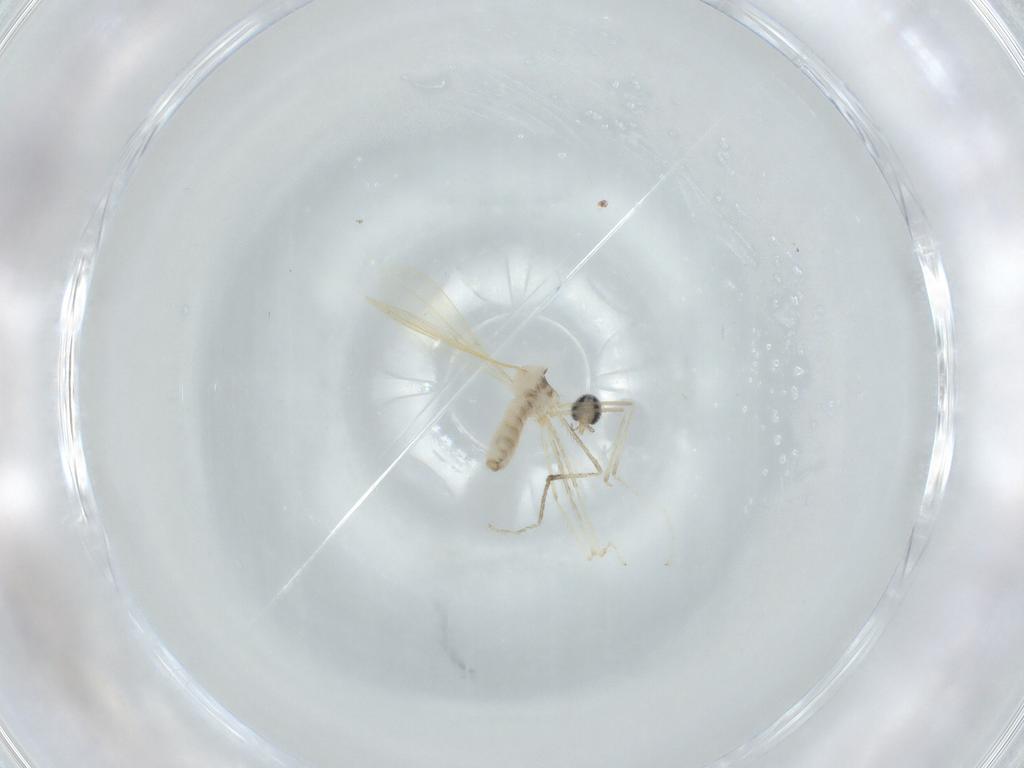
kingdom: Animalia
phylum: Arthropoda
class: Insecta
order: Diptera
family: Cecidomyiidae
